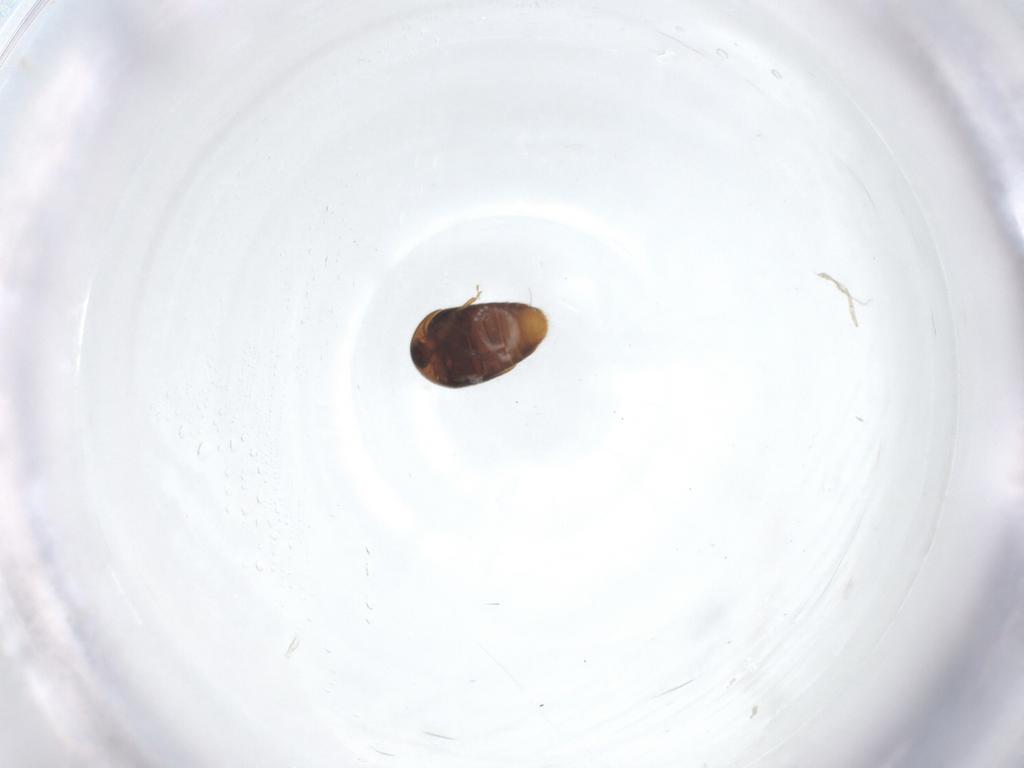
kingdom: Animalia
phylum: Arthropoda
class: Insecta
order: Coleoptera
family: Corylophidae
